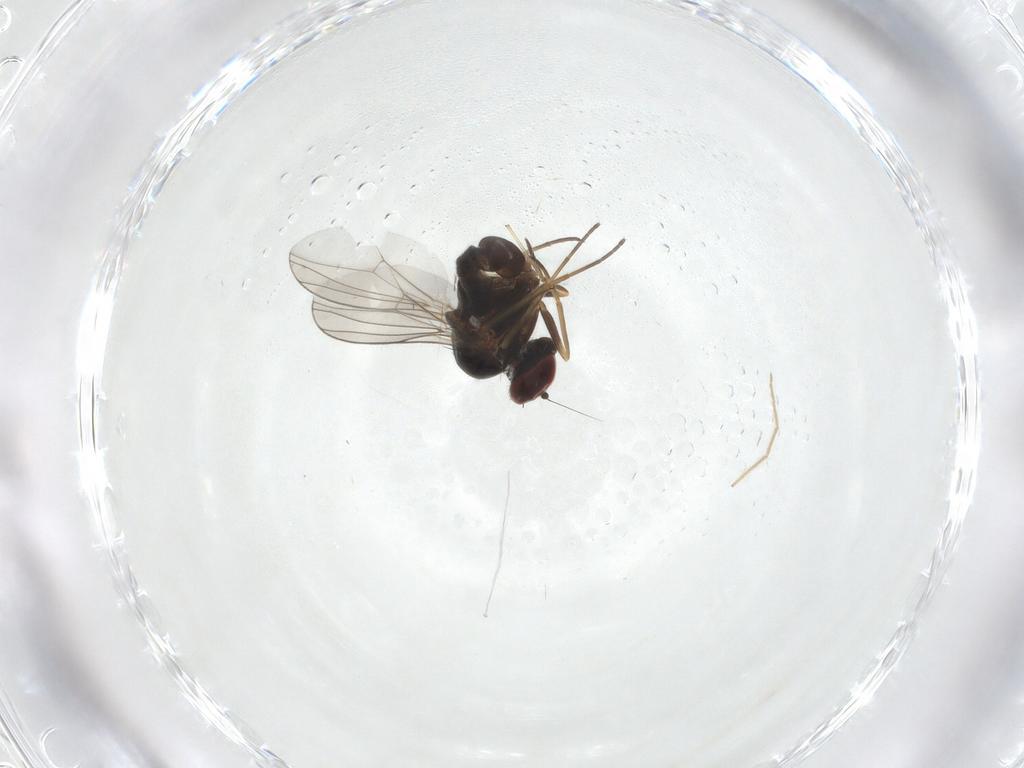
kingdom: Animalia
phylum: Arthropoda
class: Insecta
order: Diptera
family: Dolichopodidae
